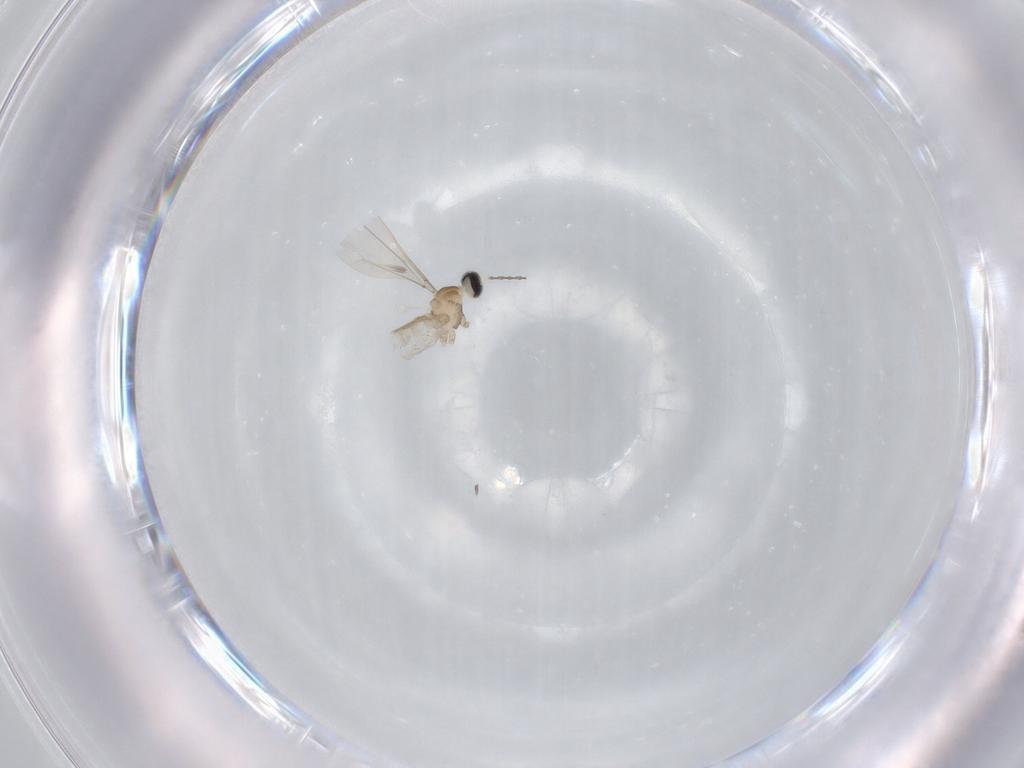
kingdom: Animalia
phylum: Arthropoda
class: Insecta
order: Diptera
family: Cecidomyiidae
